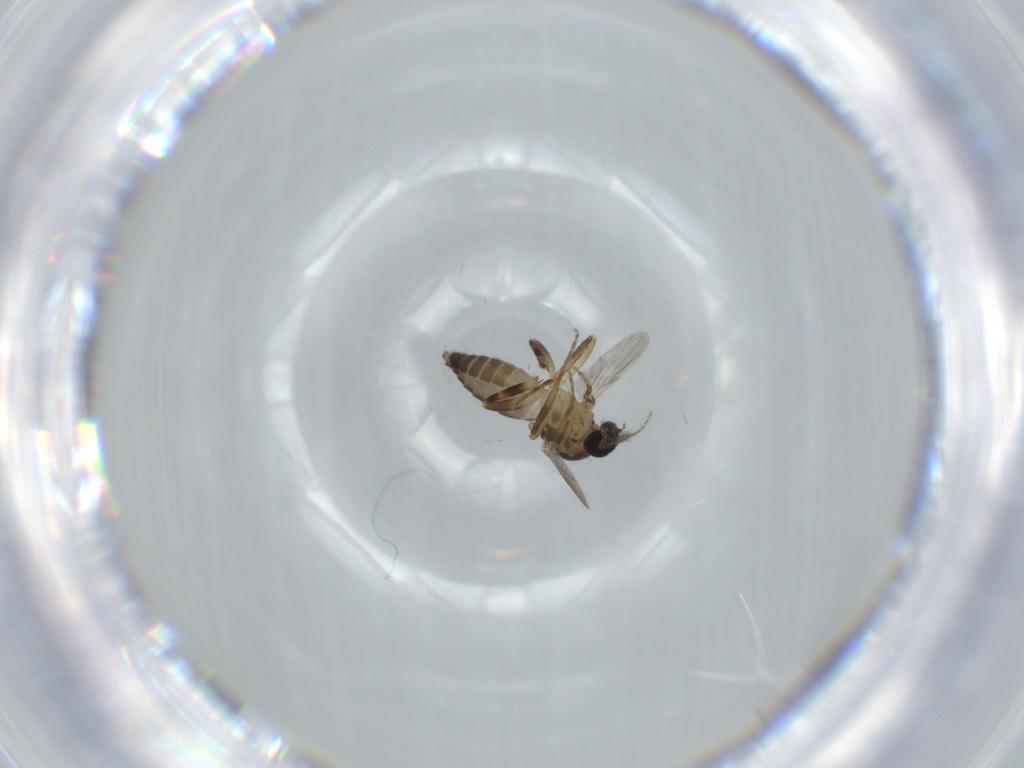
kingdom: Animalia
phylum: Arthropoda
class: Insecta
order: Diptera
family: Ceratopogonidae
